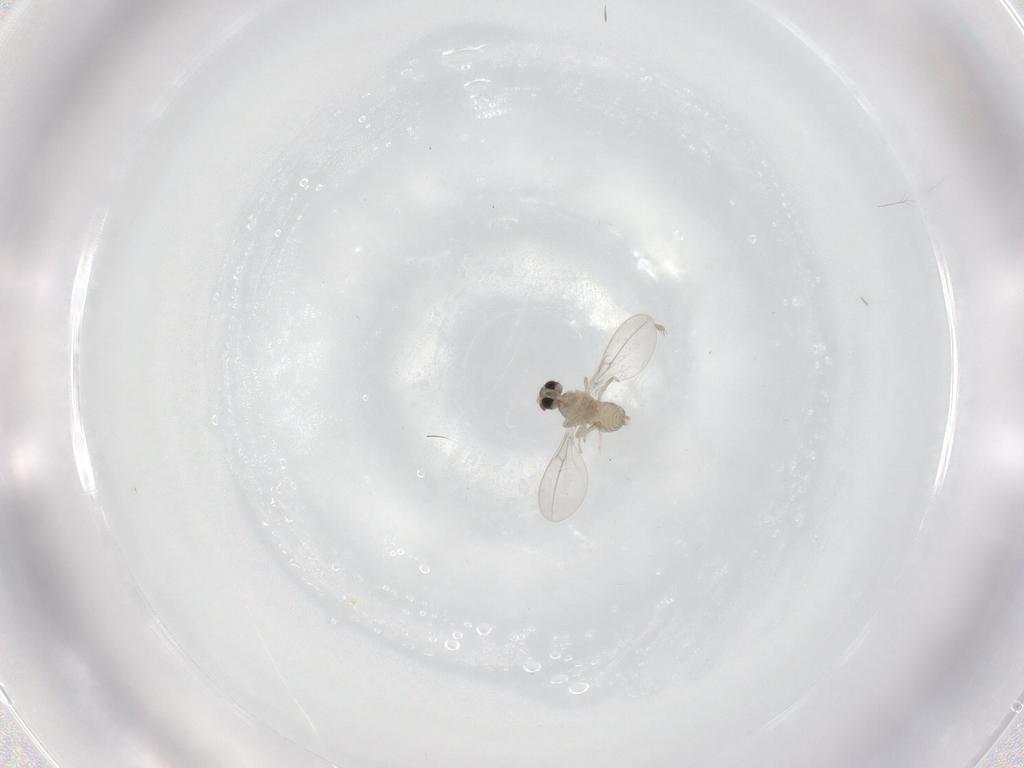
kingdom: Animalia
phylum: Arthropoda
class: Insecta
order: Diptera
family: Cecidomyiidae
